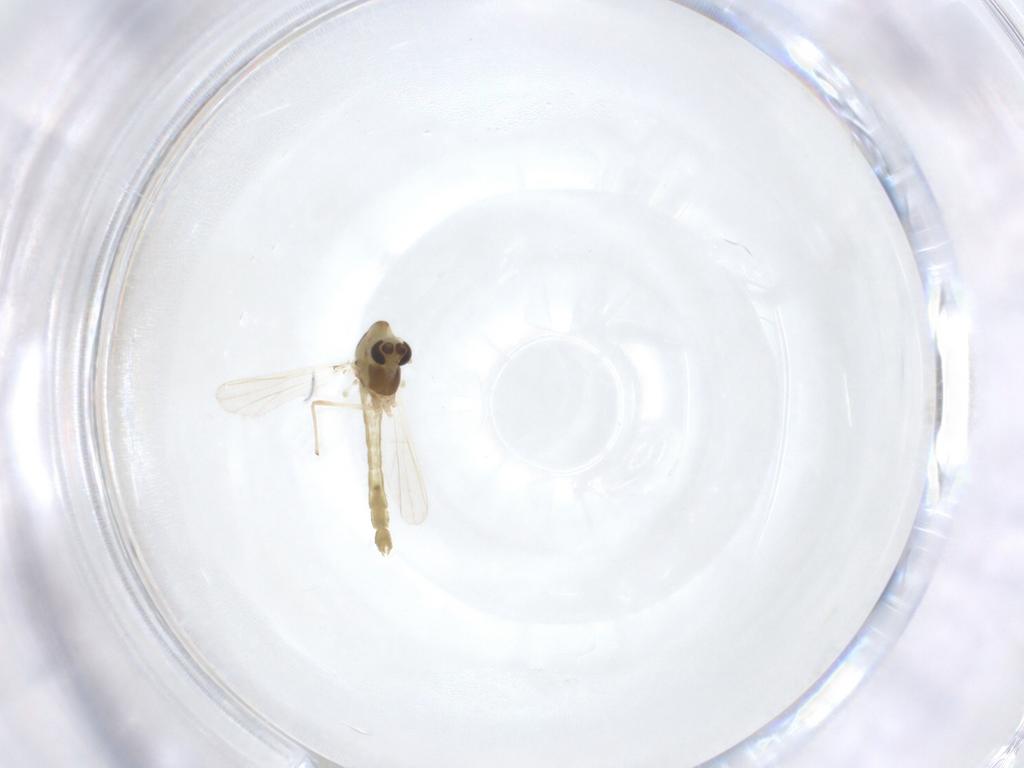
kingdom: Animalia
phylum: Arthropoda
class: Insecta
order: Diptera
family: Chironomidae
